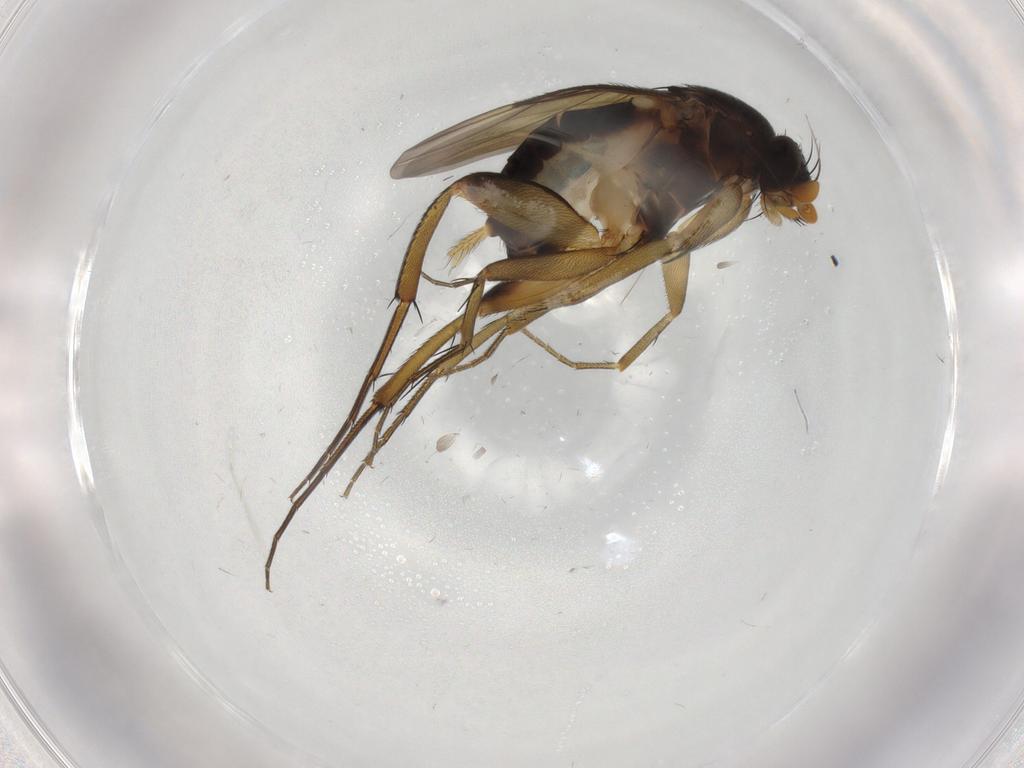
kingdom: Animalia
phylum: Arthropoda
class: Insecta
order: Diptera
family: Phoridae
